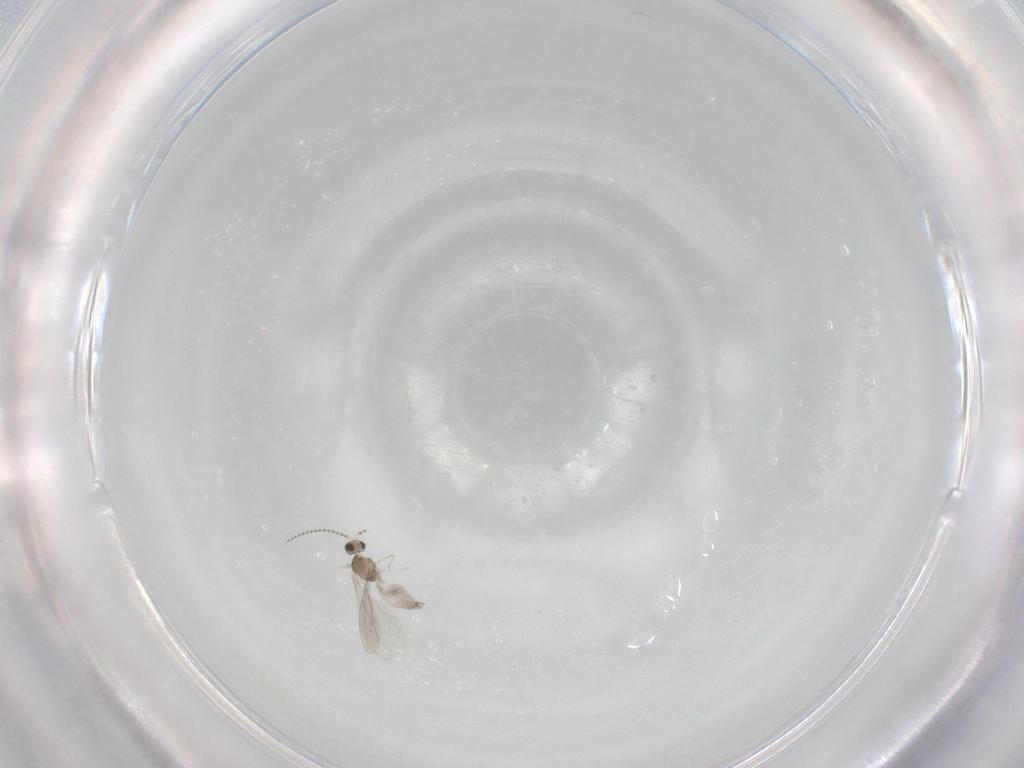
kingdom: Animalia
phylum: Arthropoda
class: Insecta
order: Diptera
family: Cecidomyiidae
